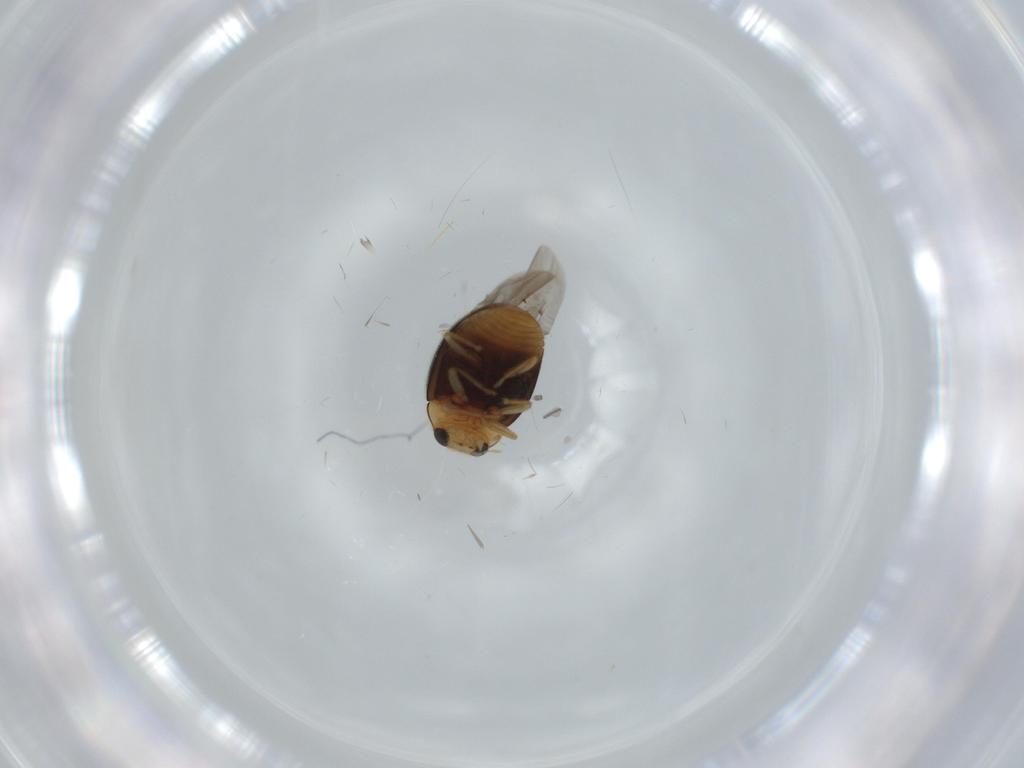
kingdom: Animalia
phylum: Arthropoda
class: Insecta
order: Coleoptera
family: Coccinellidae
